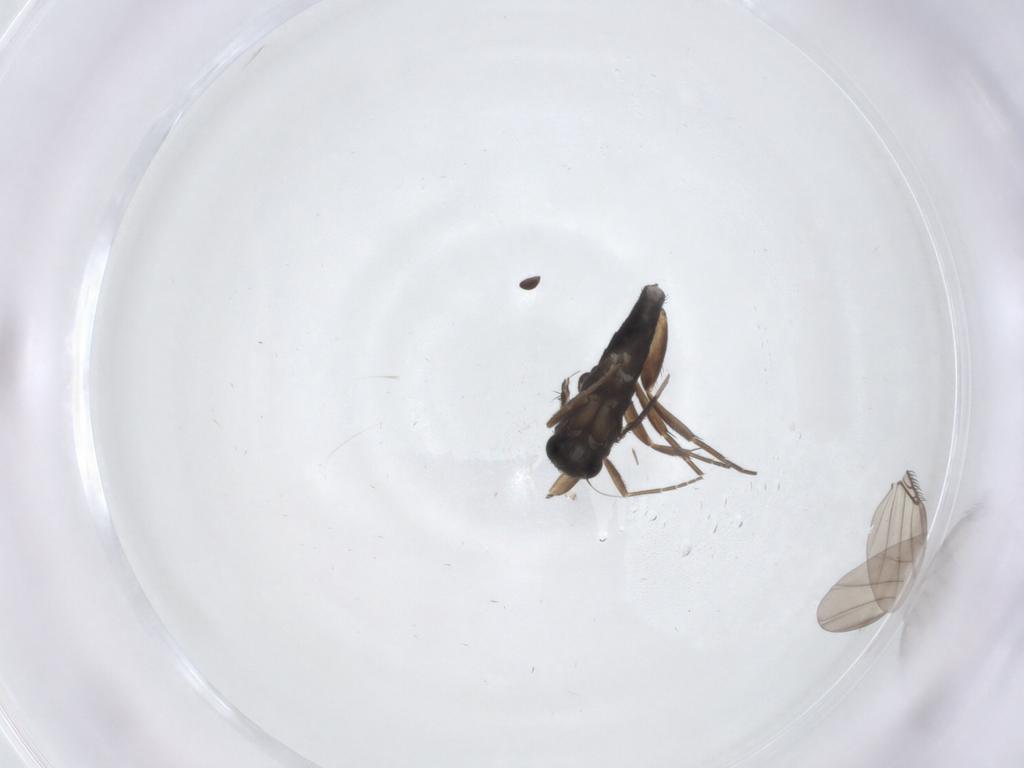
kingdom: Animalia
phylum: Arthropoda
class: Insecta
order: Diptera
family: Phoridae
